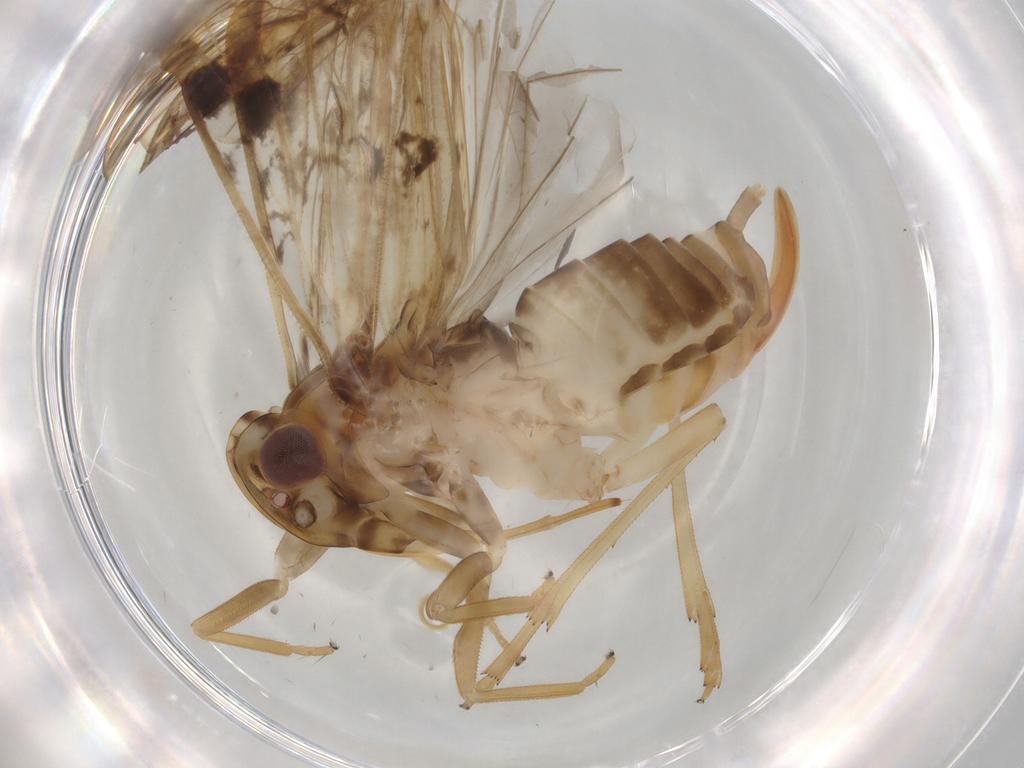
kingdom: Animalia
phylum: Arthropoda
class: Insecta
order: Hemiptera
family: Cixiidae
